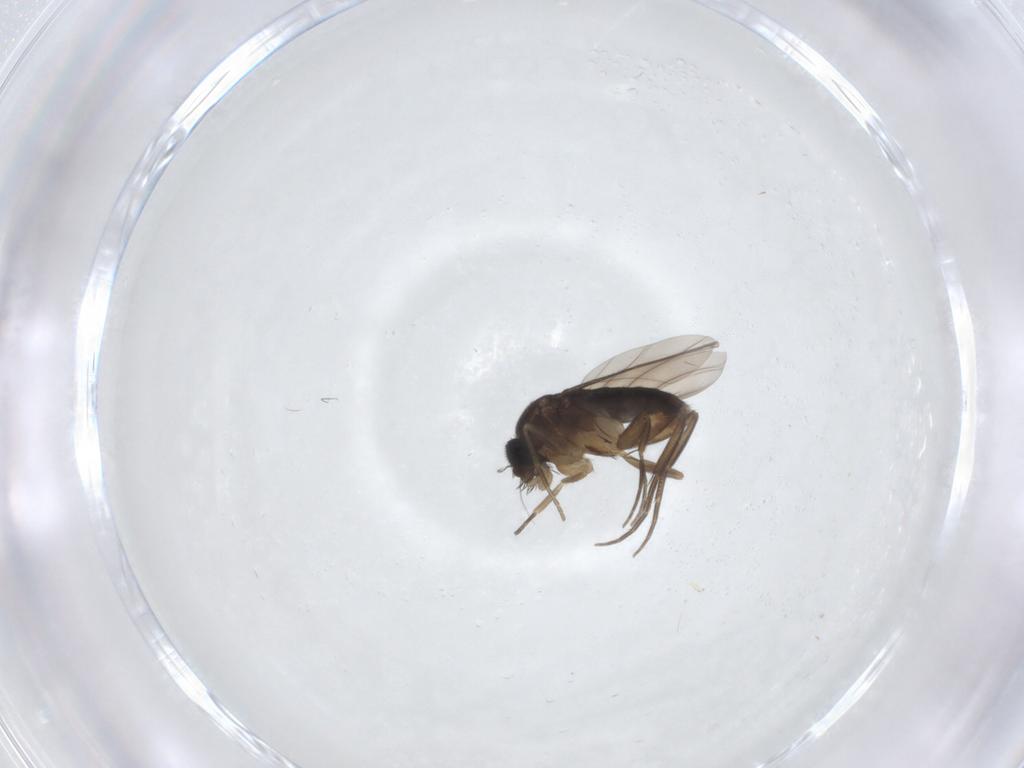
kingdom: Animalia
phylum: Arthropoda
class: Insecta
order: Diptera
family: Phoridae
